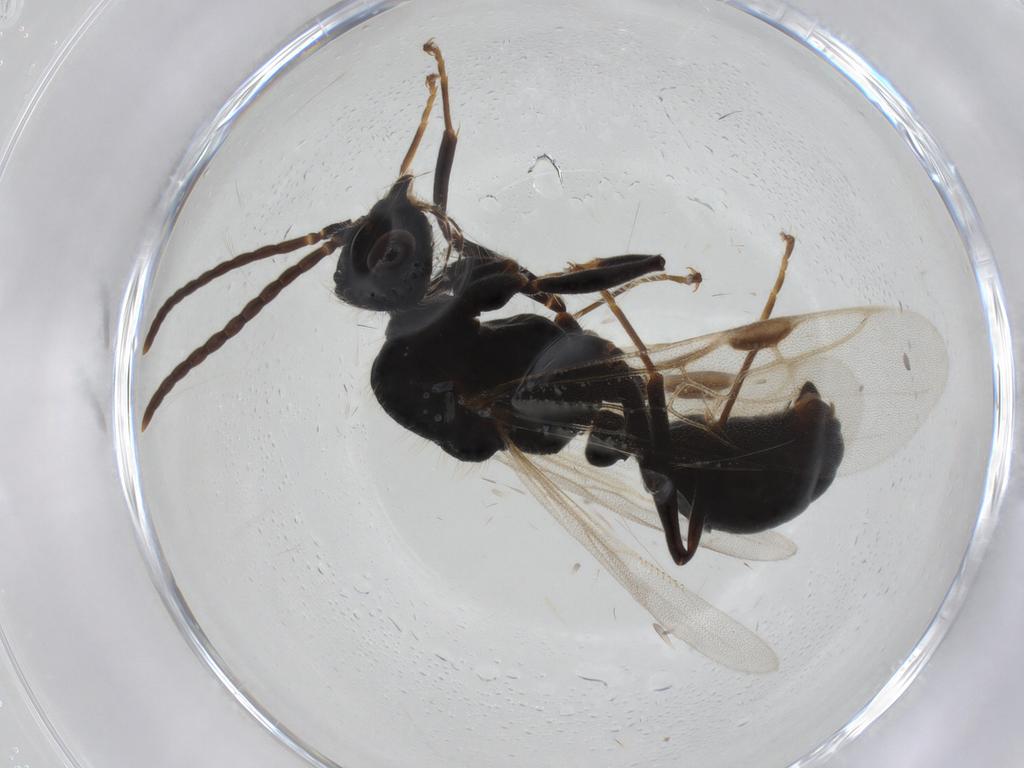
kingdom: Animalia
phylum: Arthropoda
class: Insecta
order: Hymenoptera
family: Formicidae
